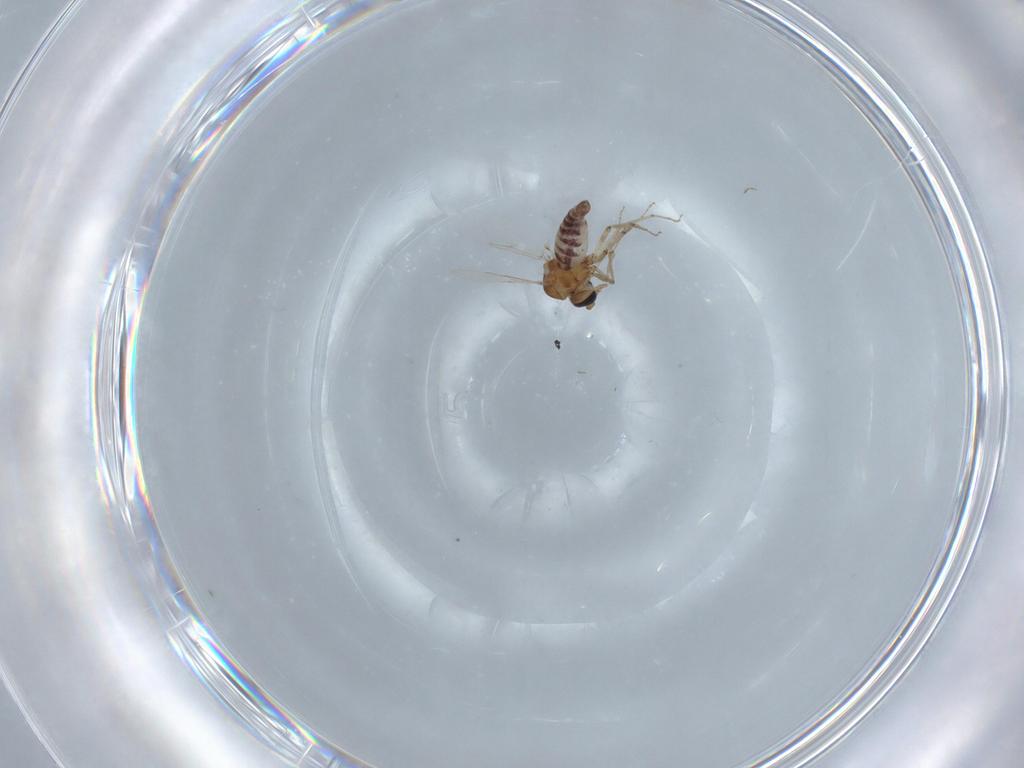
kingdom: Animalia
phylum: Arthropoda
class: Insecta
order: Diptera
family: Ceratopogonidae
